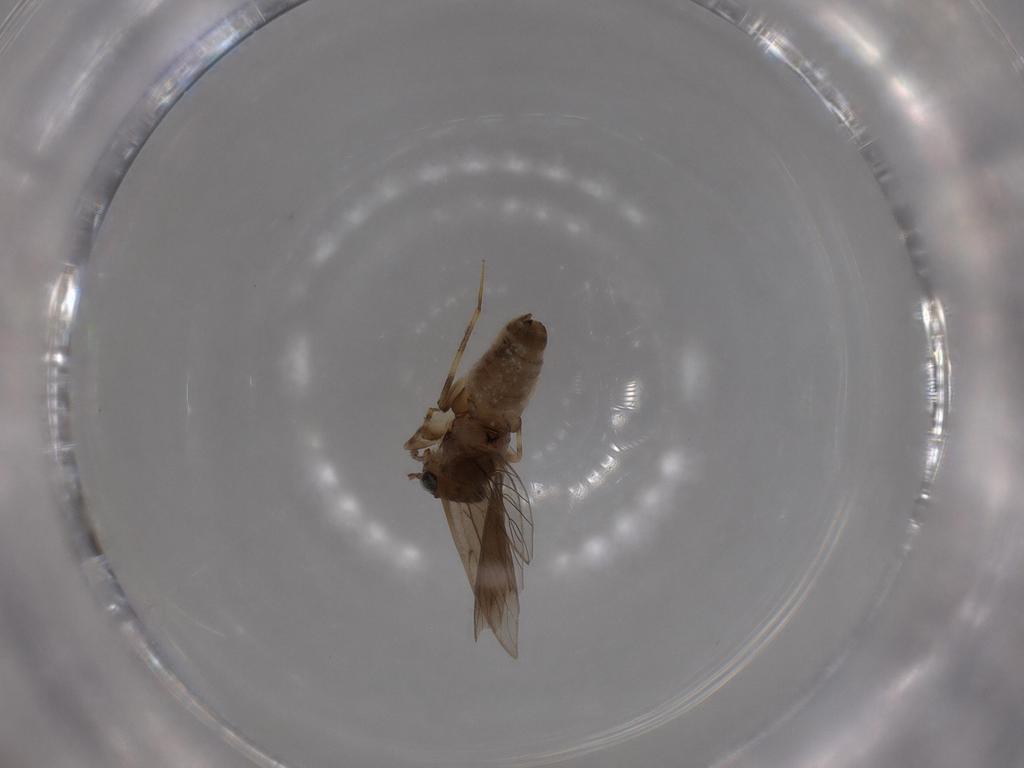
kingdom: Animalia
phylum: Arthropoda
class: Insecta
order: Psocodea
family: Lepidopsocidae
